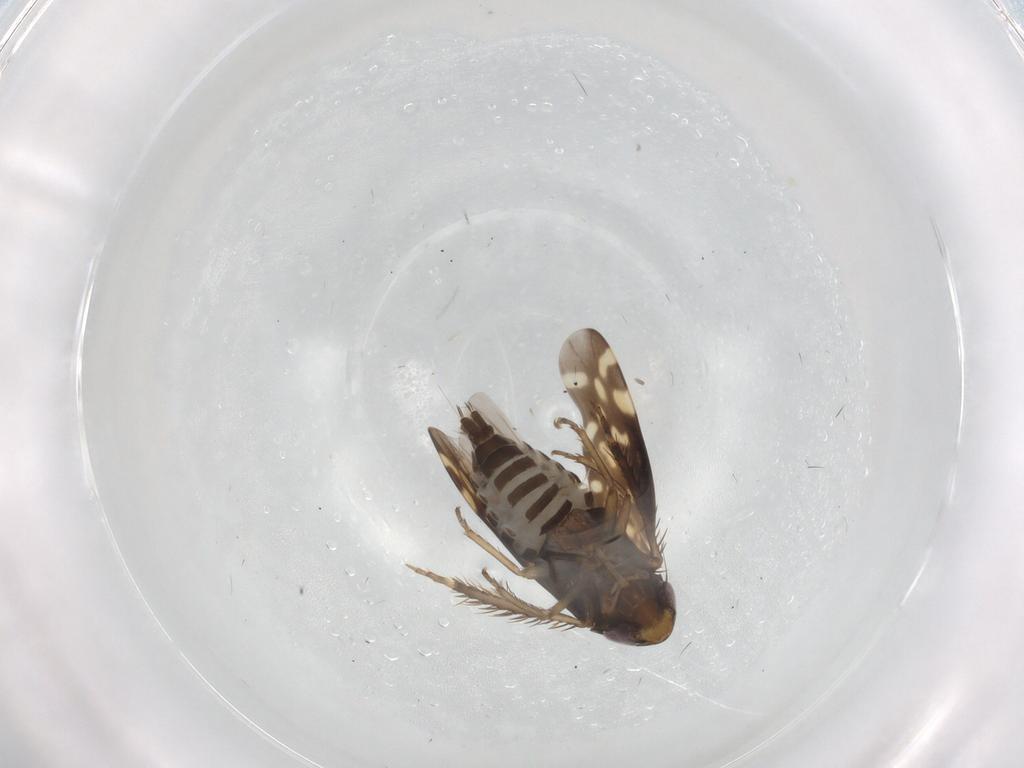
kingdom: Animalia
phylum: Arthropoda
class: Insecta
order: Hemiptera
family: Cicadellidae
